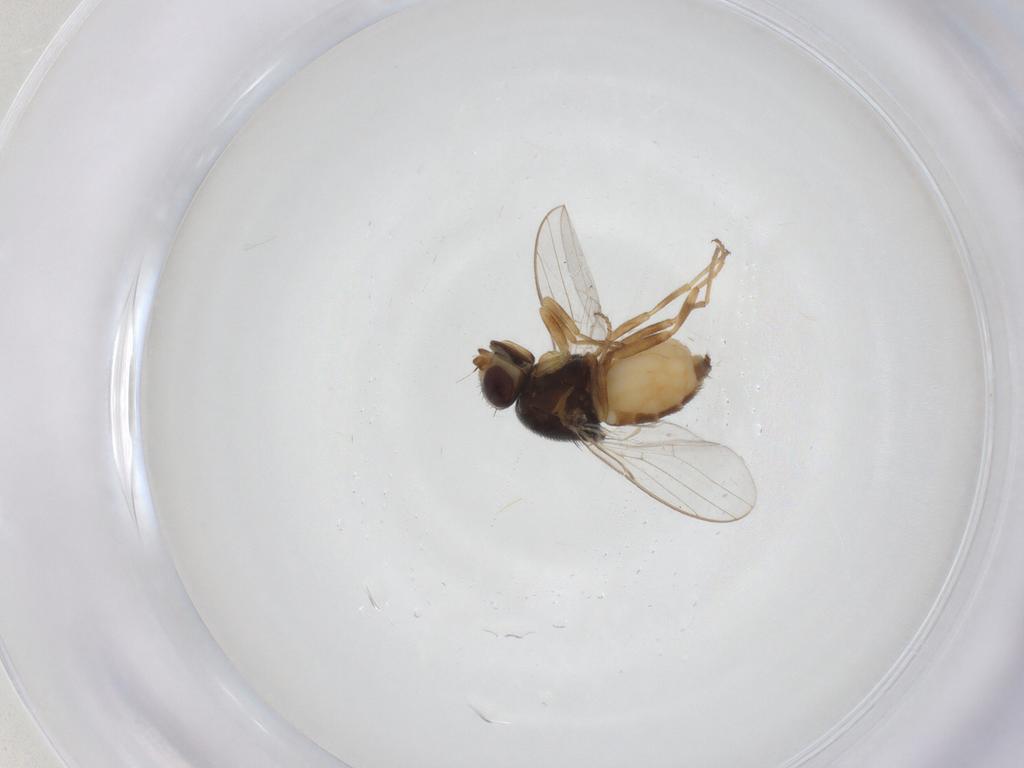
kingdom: Animalia
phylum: Arthropoda
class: Insecta
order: Diptera
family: Chloropidae
